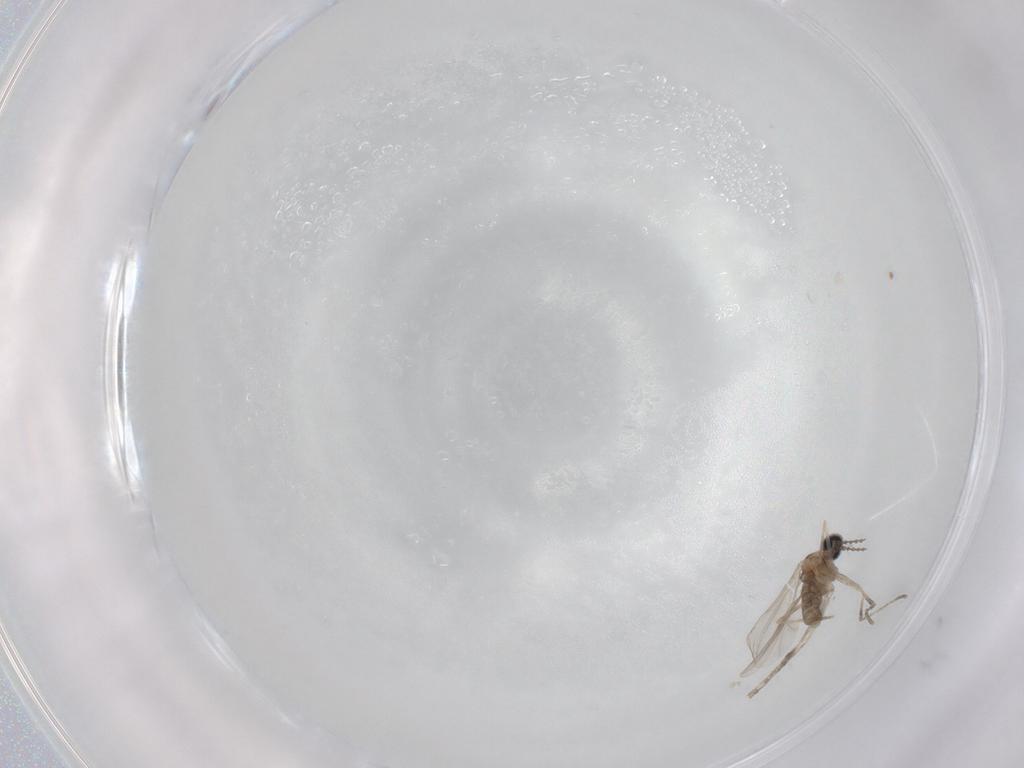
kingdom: Animalia
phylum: Arthropoda
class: Insecta
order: Diptera
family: Cecidomyiidae
